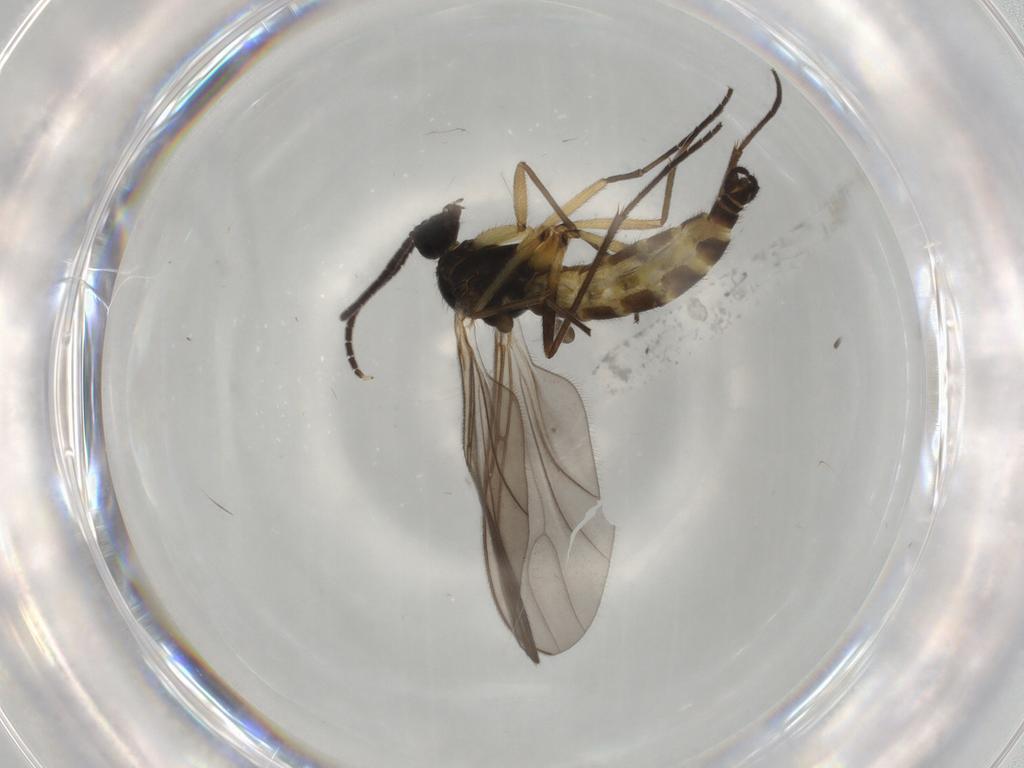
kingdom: Animalia
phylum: Arthropoda
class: Insecta
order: Diptera
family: Sciaridae
